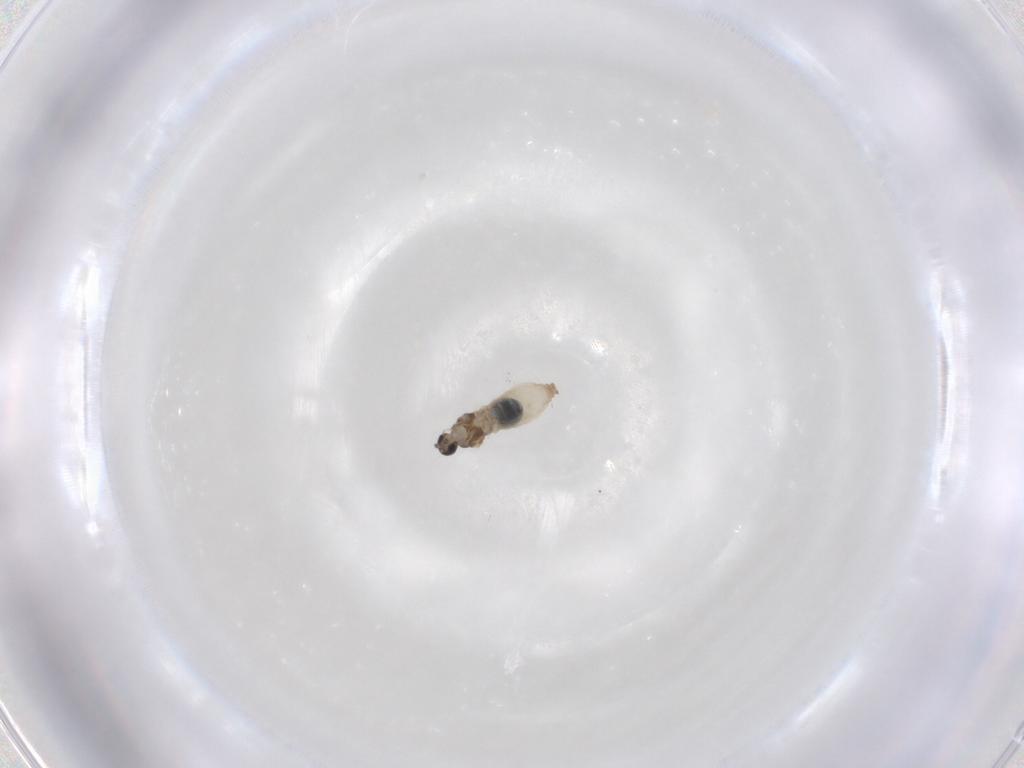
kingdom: Animalia
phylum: Arthropoda
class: Insecta
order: Diptera
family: Cecidomyiidae
